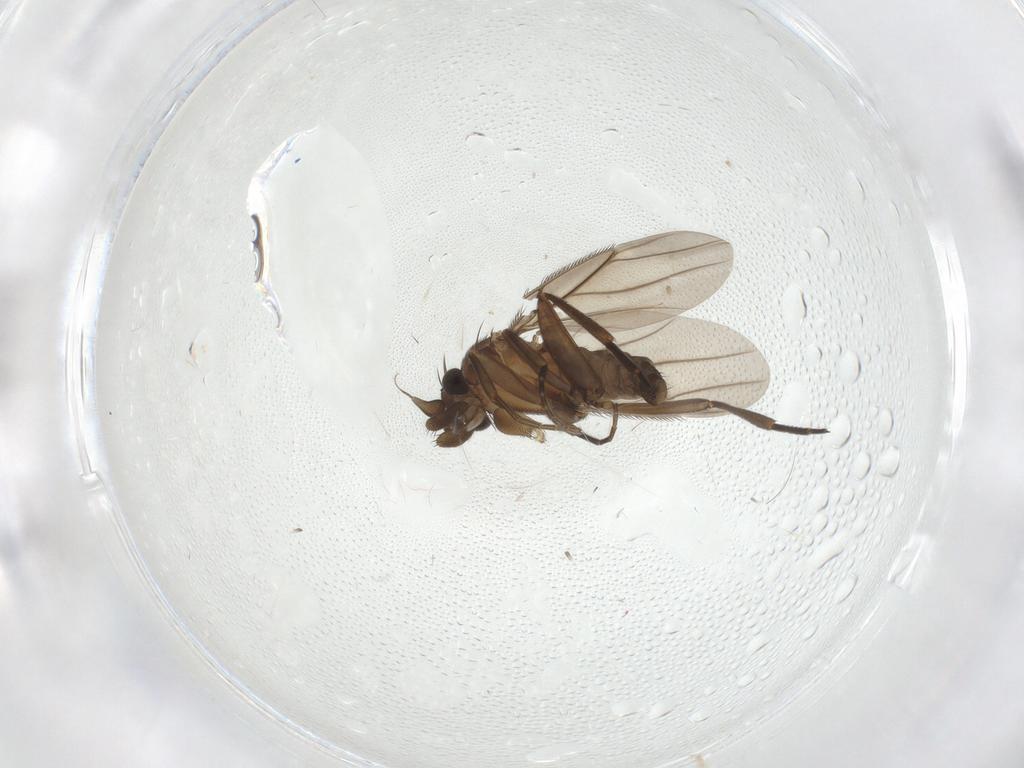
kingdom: Animalia
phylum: Arthropoda
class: Insecta
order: Diptera
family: Phoridae
